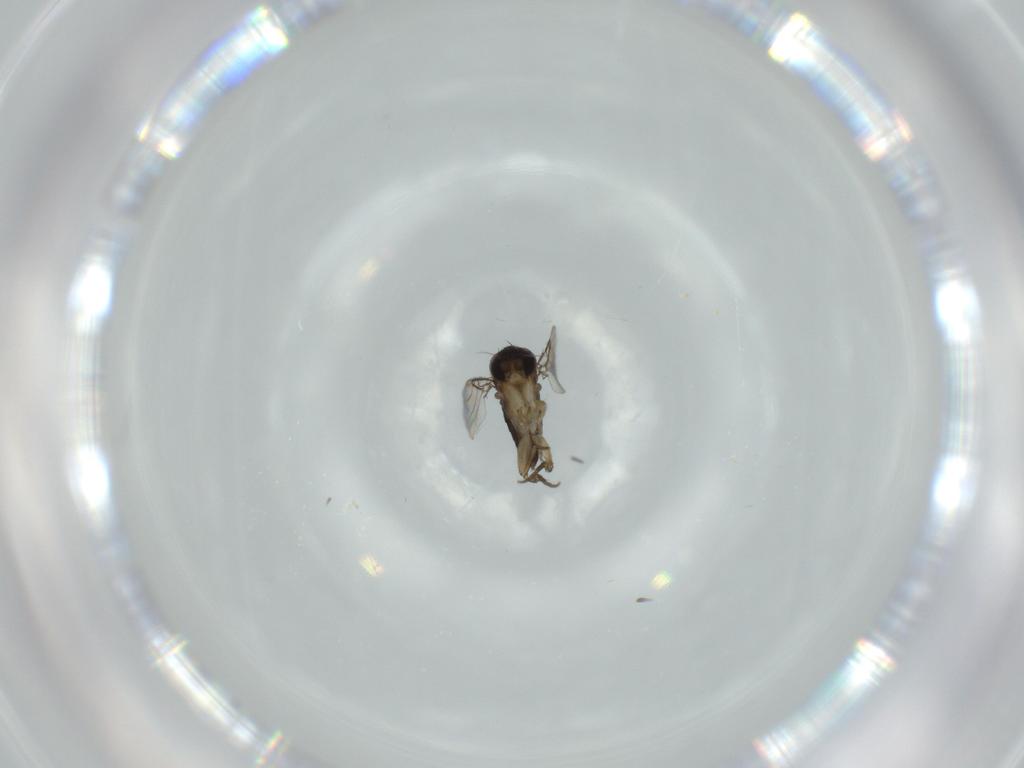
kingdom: Animalia
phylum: Arthropoda
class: Insecta
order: Diptera
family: Phoridae
